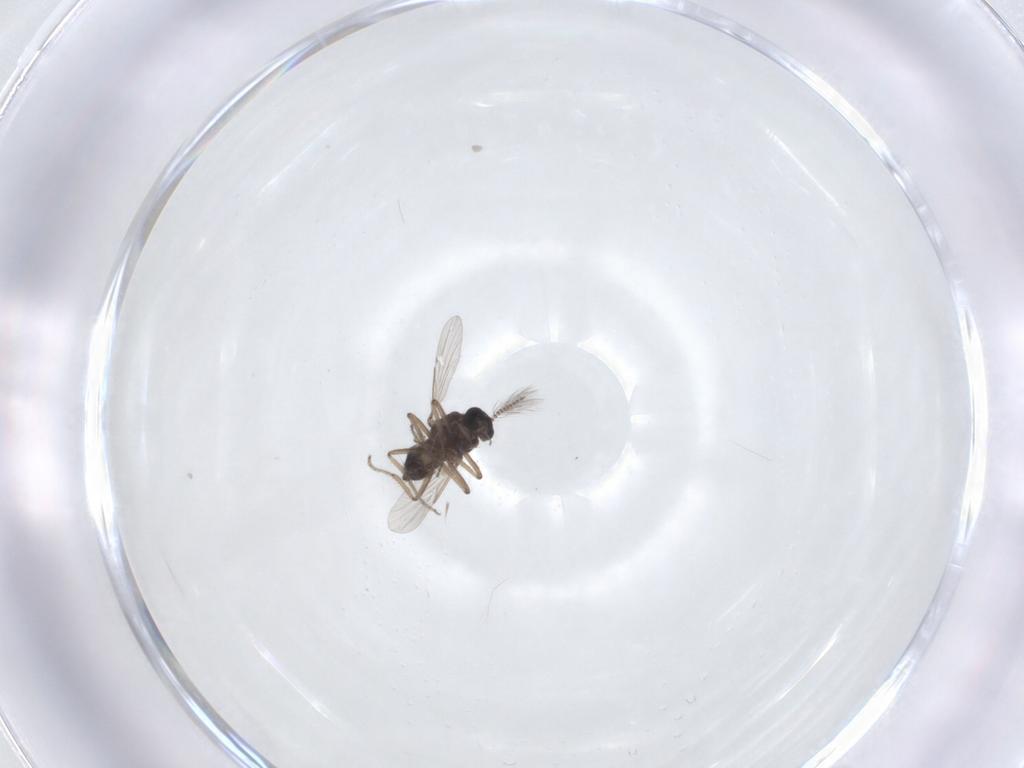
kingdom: Animalia
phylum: Arthropoda
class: Insecta
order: Diptera
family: Ceratopogonidae
